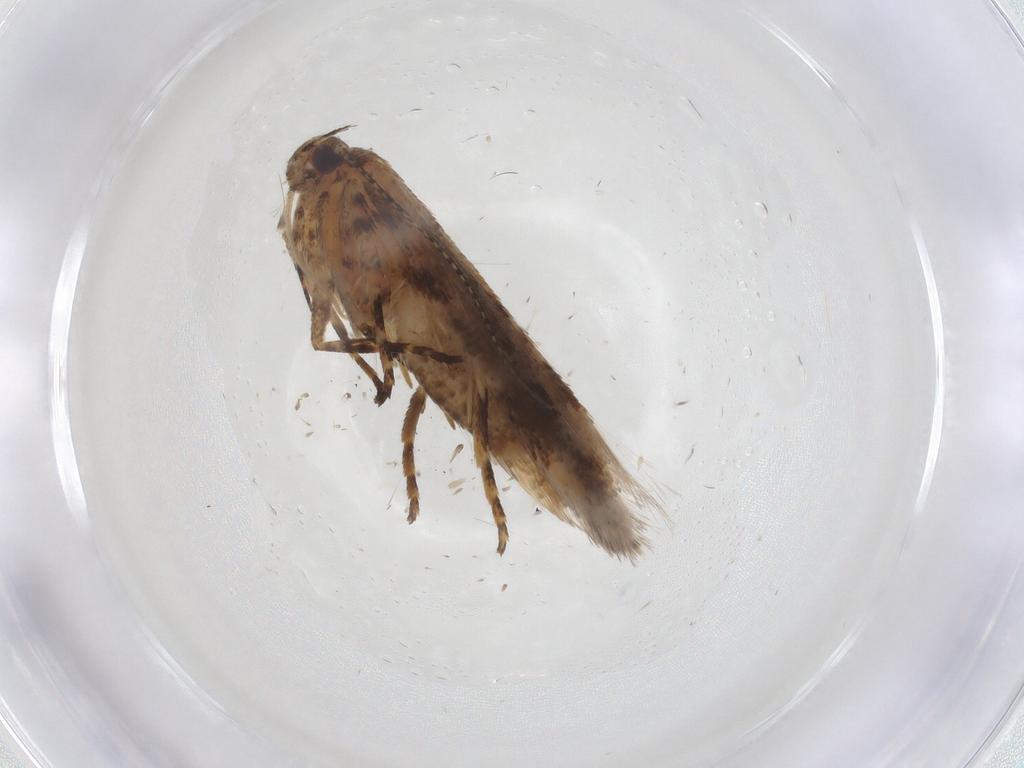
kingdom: Animalia
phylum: Arthropoda
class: Insecta
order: Lepidoptera
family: Gelechiidae
